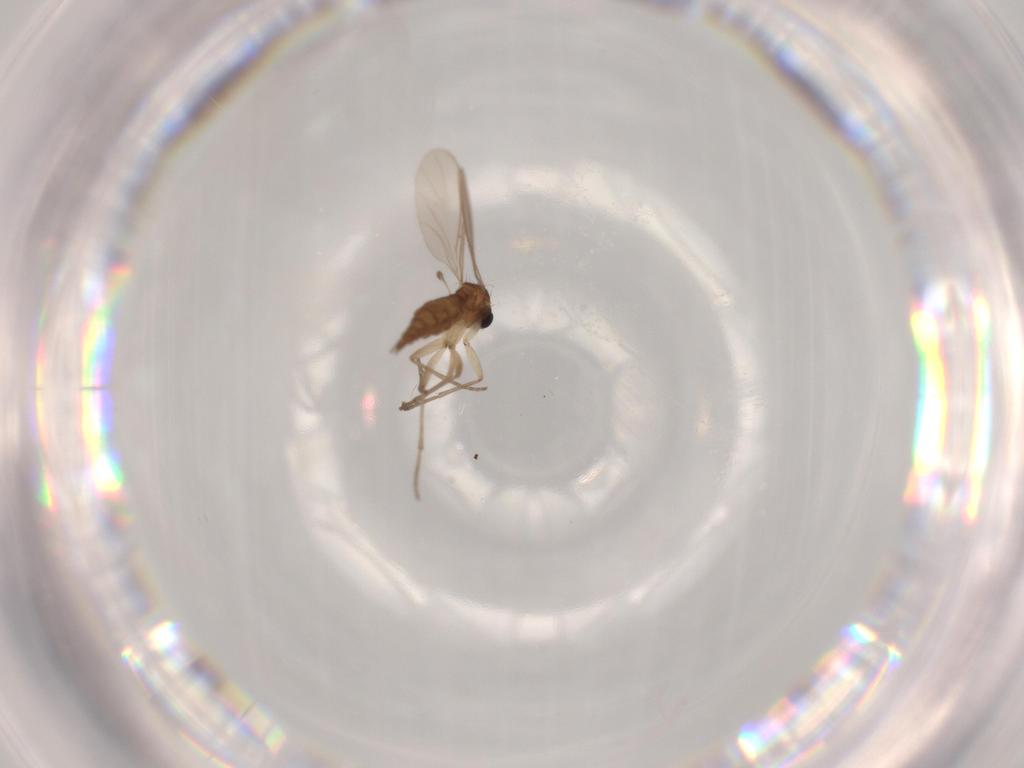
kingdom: Animalia
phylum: Arthropoda
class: Insecta
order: Diptera
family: Sciaridae
